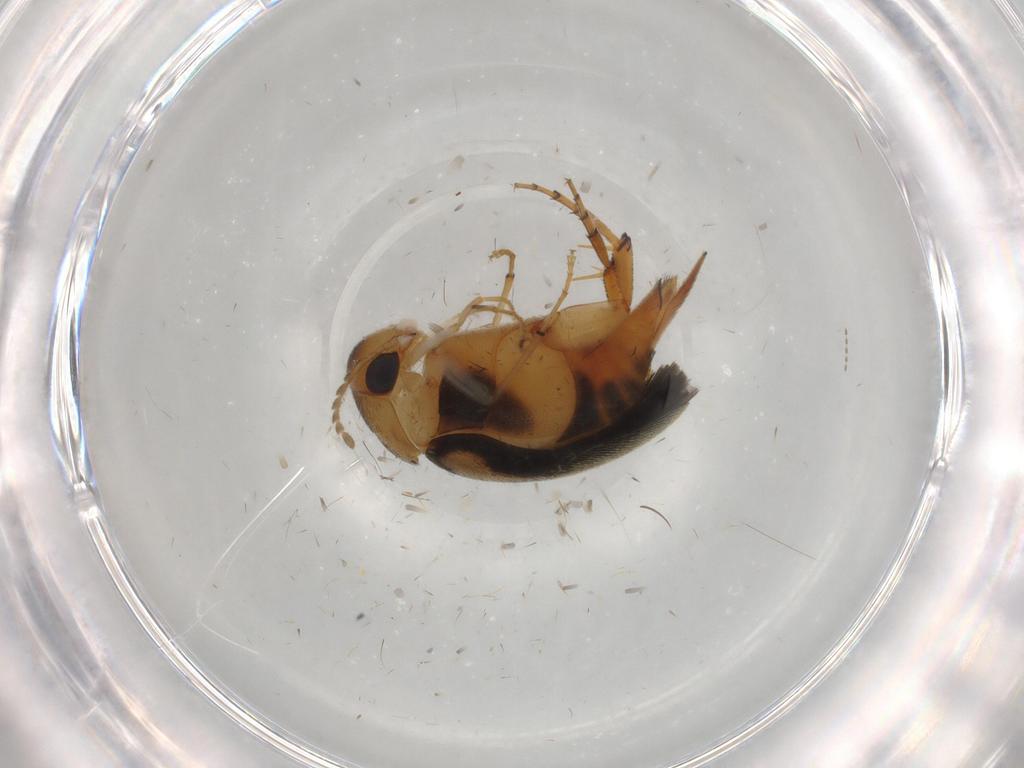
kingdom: Animalia
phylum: Arthropoda
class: Insecta
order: Coleoptera
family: Mordellidae
